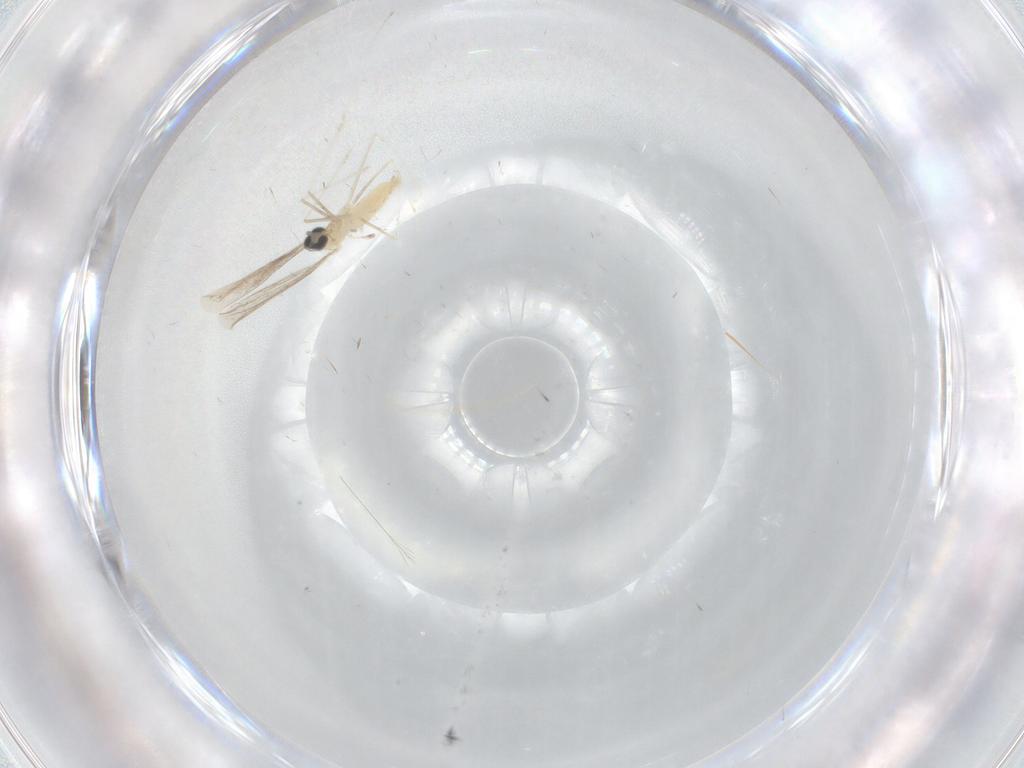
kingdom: Animalia
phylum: Arthropoda
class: Insecta
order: Diptera
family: Cecidomyiidae
